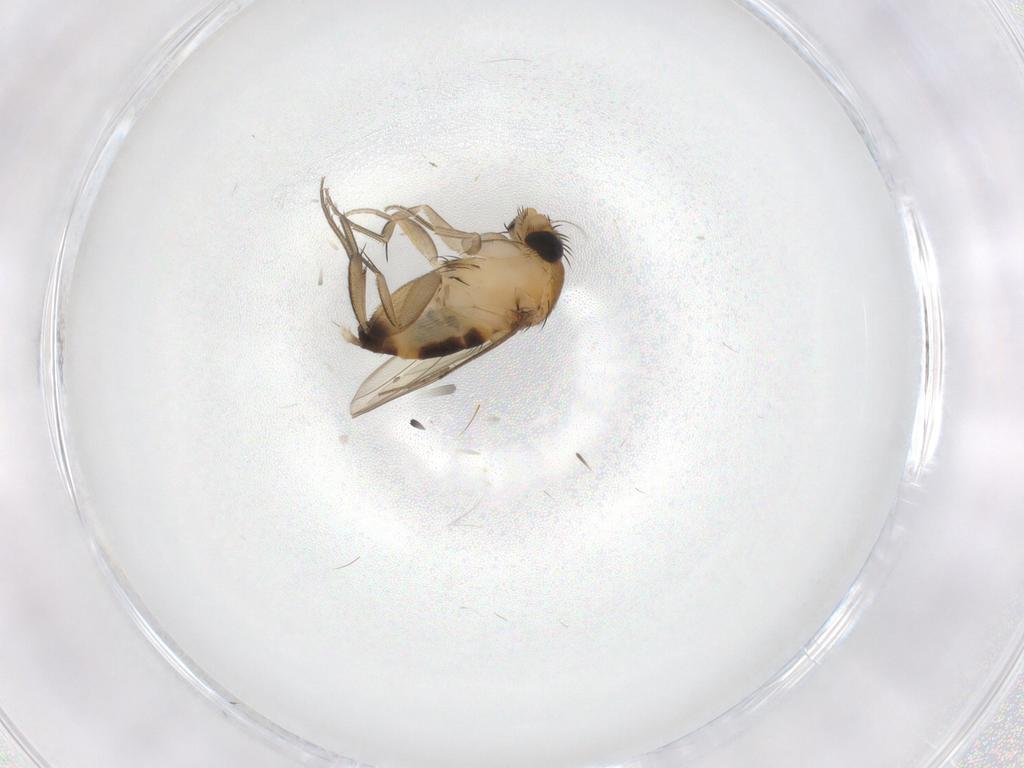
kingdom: Animalia
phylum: Arthropoda
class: Insecta
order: Diptera
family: Phoridae
